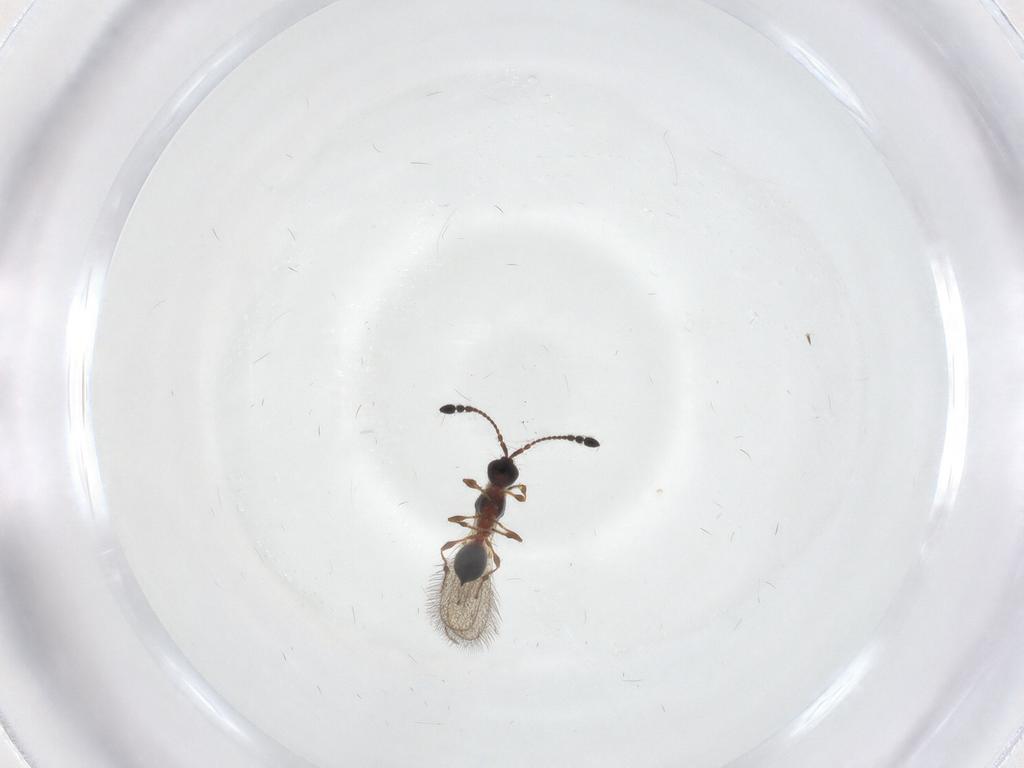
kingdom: Animalia
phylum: Arthropoda
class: Insecta
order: Hymenoptera
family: Diapriidae
